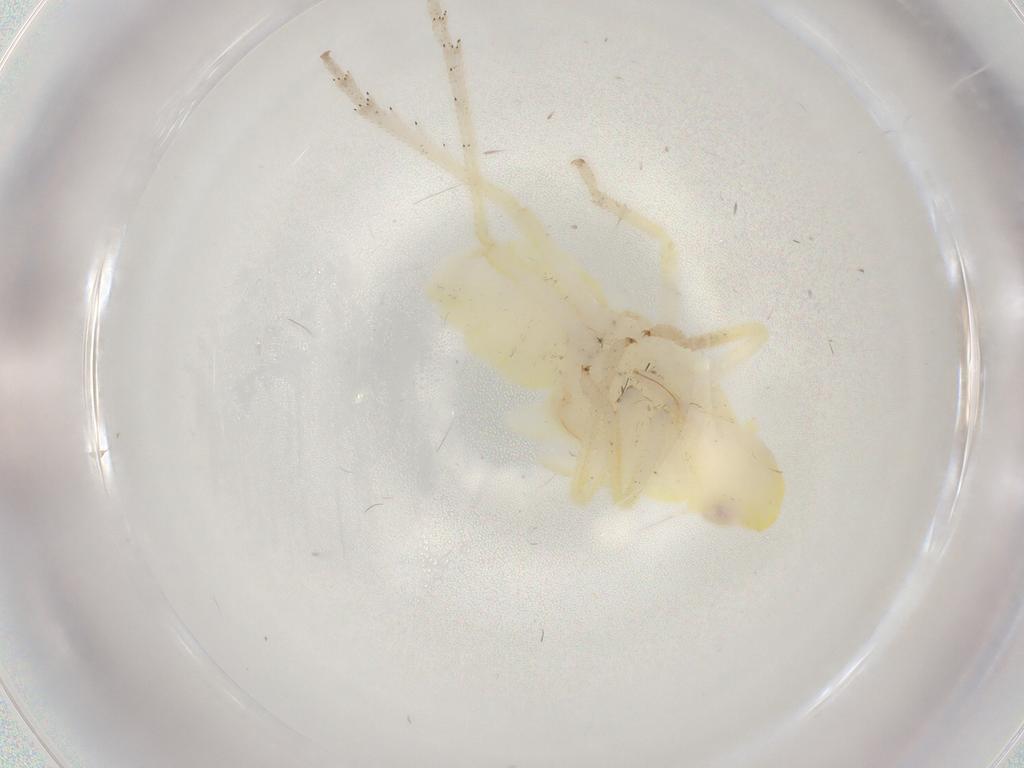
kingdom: Animalia
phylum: Arthropoda
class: Insecta
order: Hemiptera
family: Tropiduchidae
